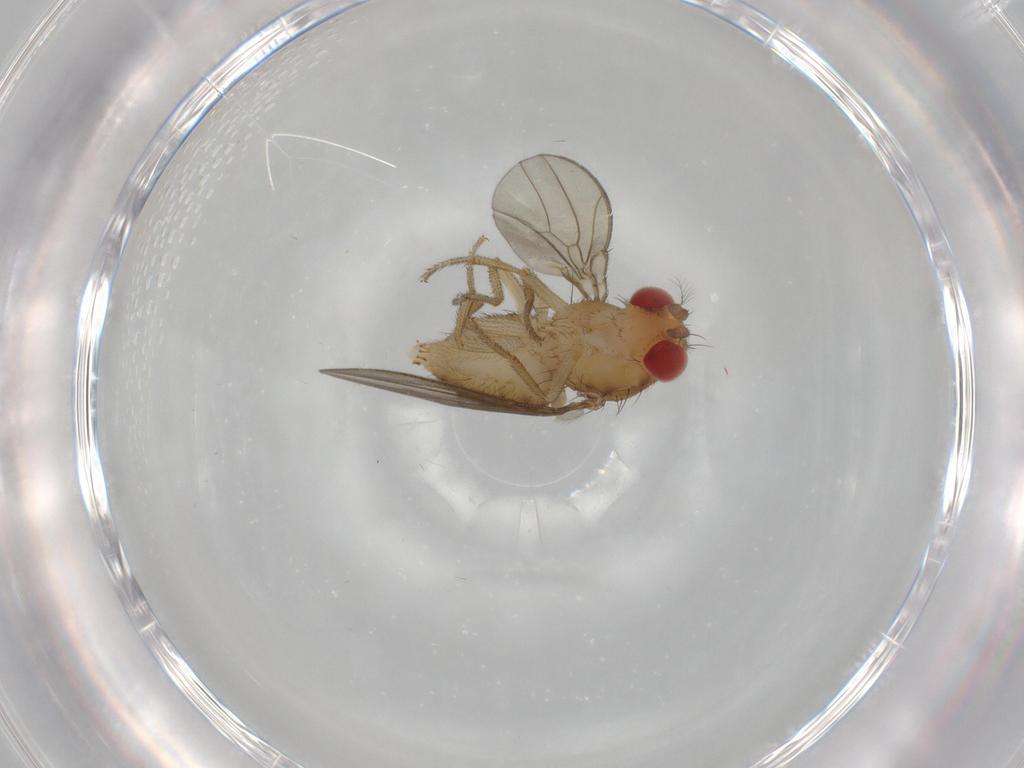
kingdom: Animalia
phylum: Arthropoda
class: Insecta
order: Diptera
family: Drosophilidae
